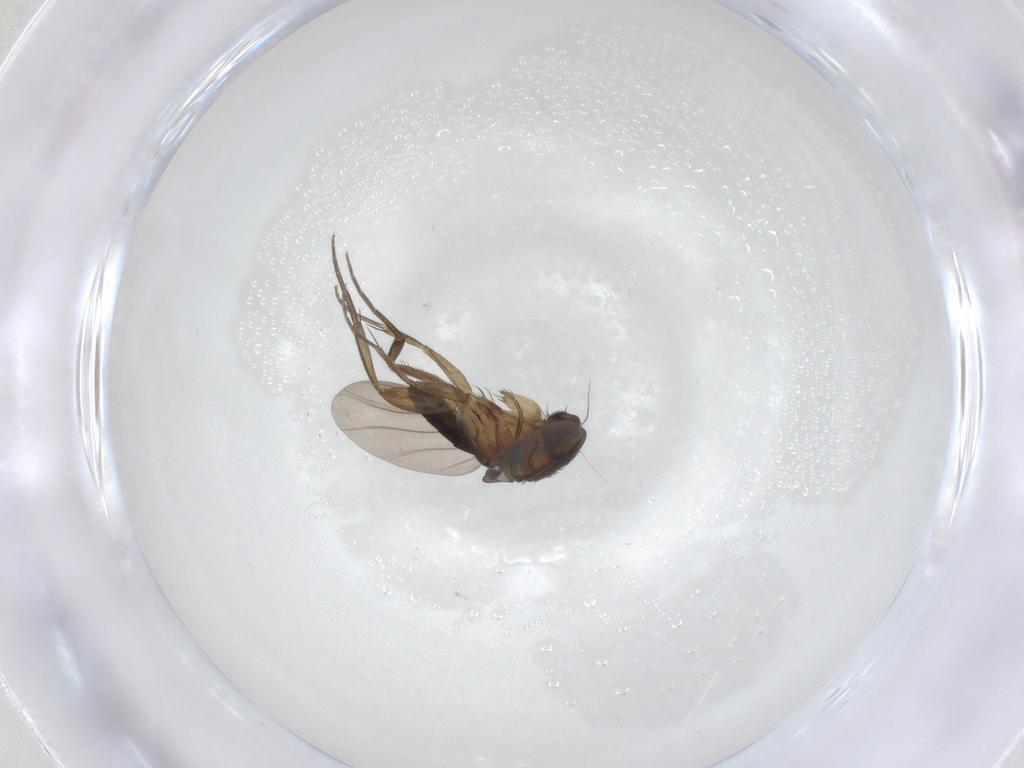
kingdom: Animalia
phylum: Arthropoda
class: Insecta
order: Diptera
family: Phoridae
